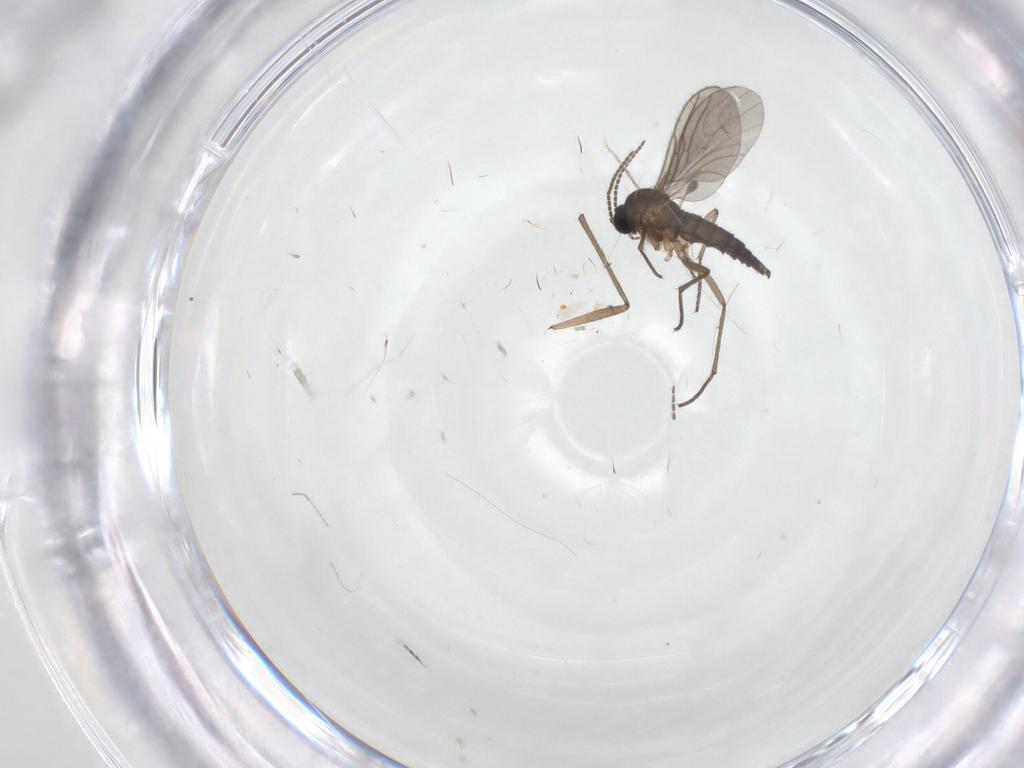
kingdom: Animalia
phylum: Arthropoda
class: Insecta
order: Diptera
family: Sciaridae
